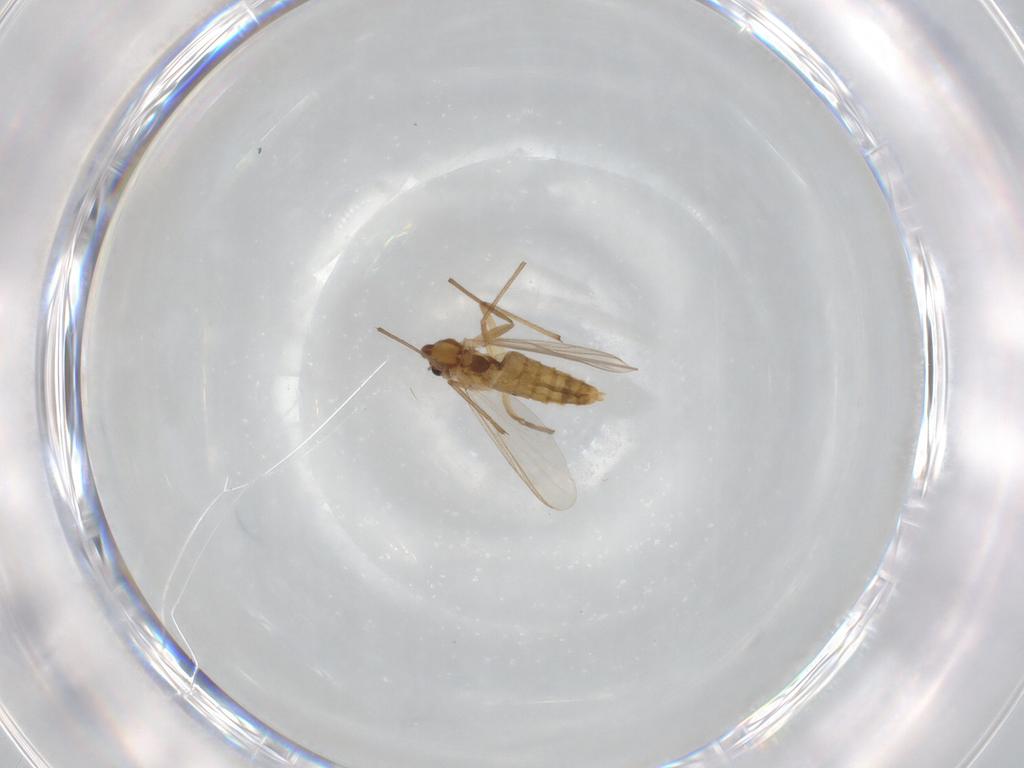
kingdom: Animalia
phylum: Arthropoda
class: Insecta
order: Diptera
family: Chironomidae
